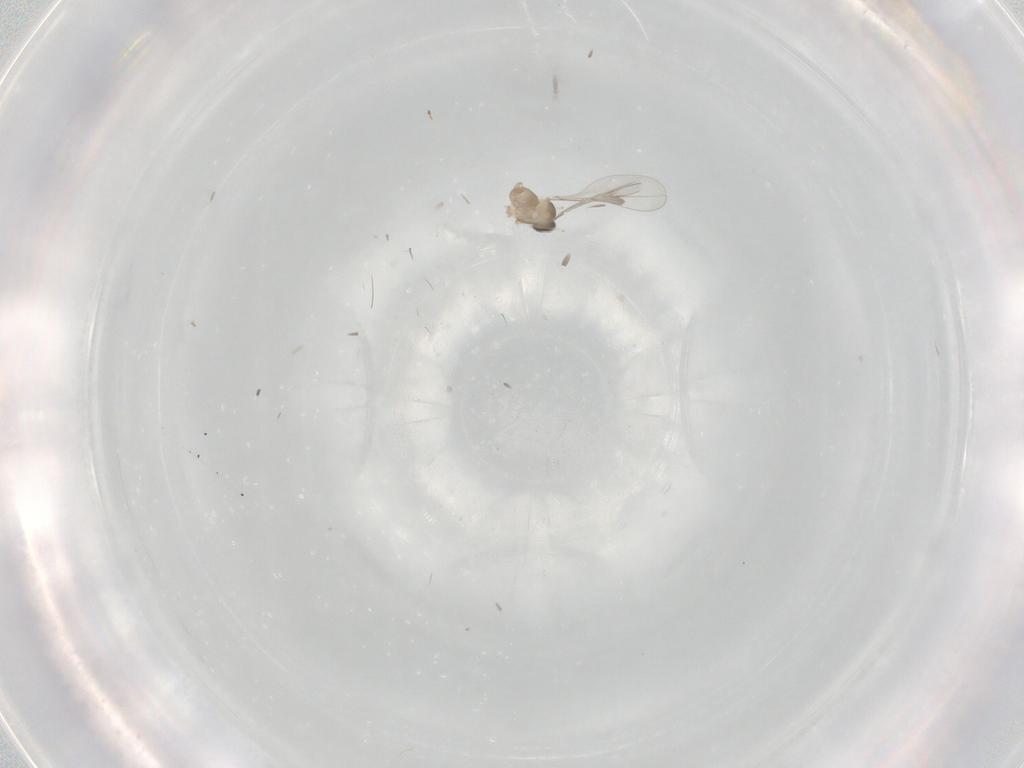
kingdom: Animalia
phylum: Arthropoda
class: Insecta
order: Diptera
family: Cecidomyiidae
